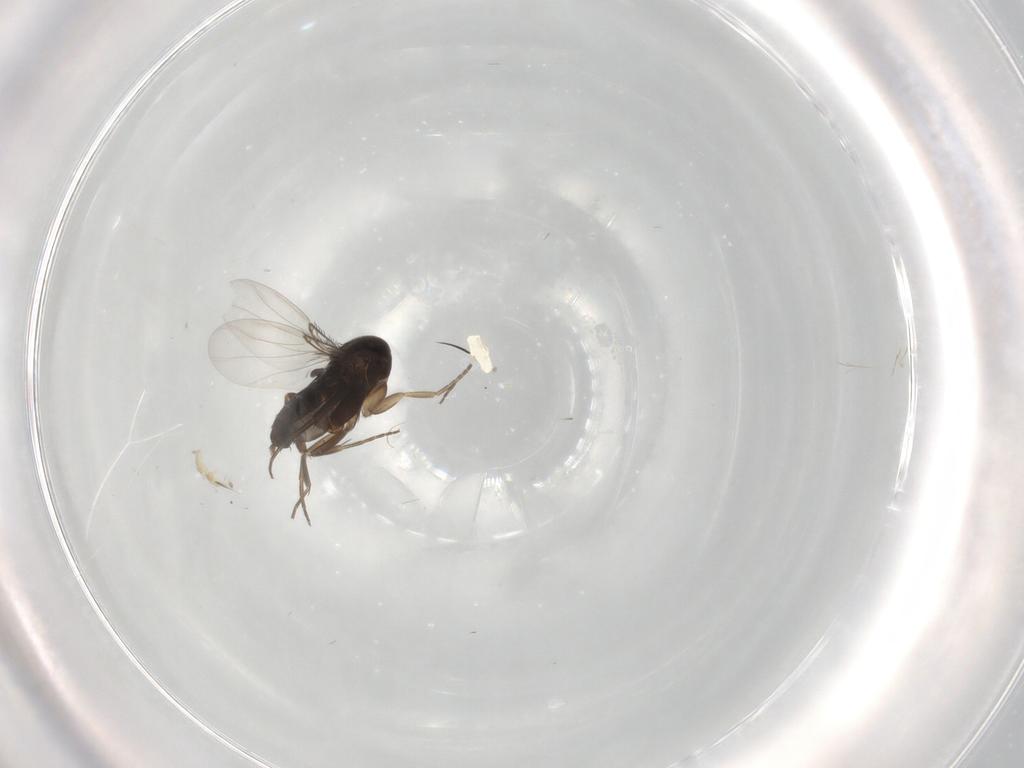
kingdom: Animalia
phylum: Arthropoda
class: Insecta
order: Diptera
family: Phoridae
